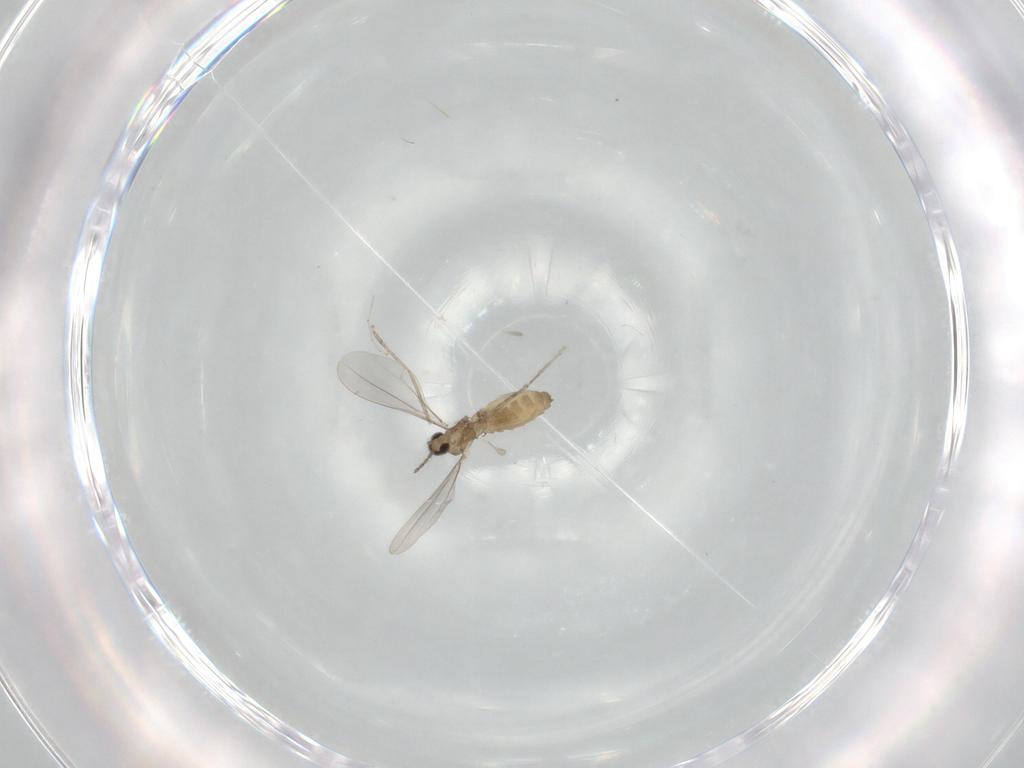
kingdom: Animalia
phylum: Arthropoda
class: Insecta
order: Diptera
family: Cecidomyiidae
